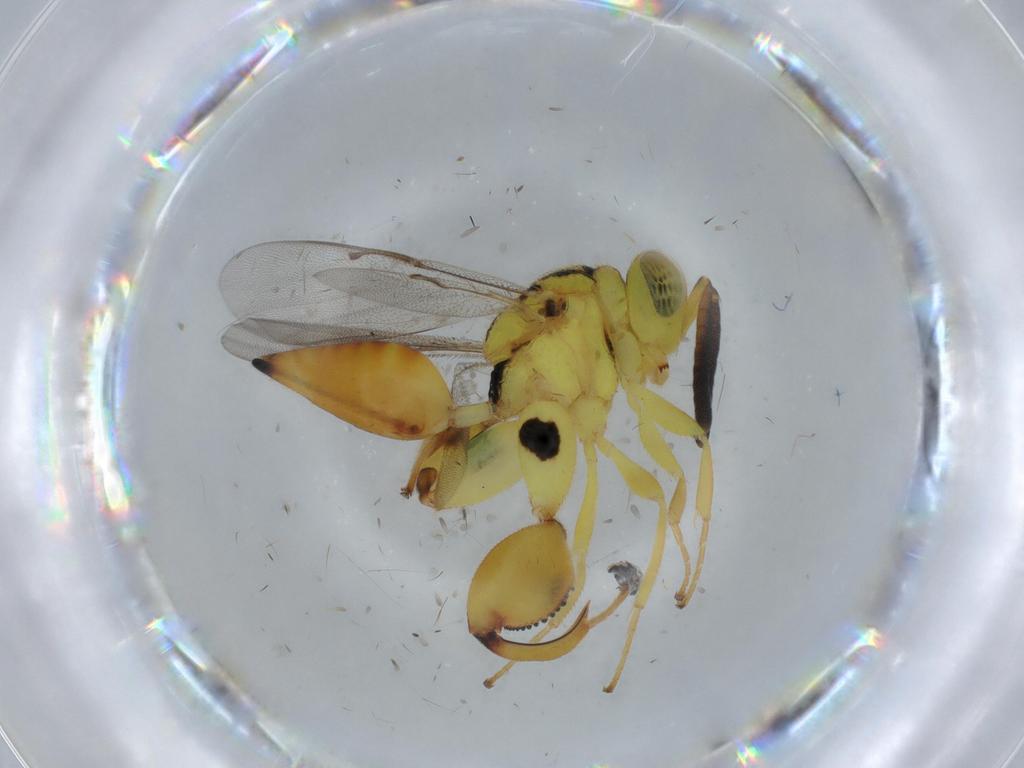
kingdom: Animalia
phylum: Arthropoda
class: Insecta
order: Hymenoptera
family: Chalcididae
